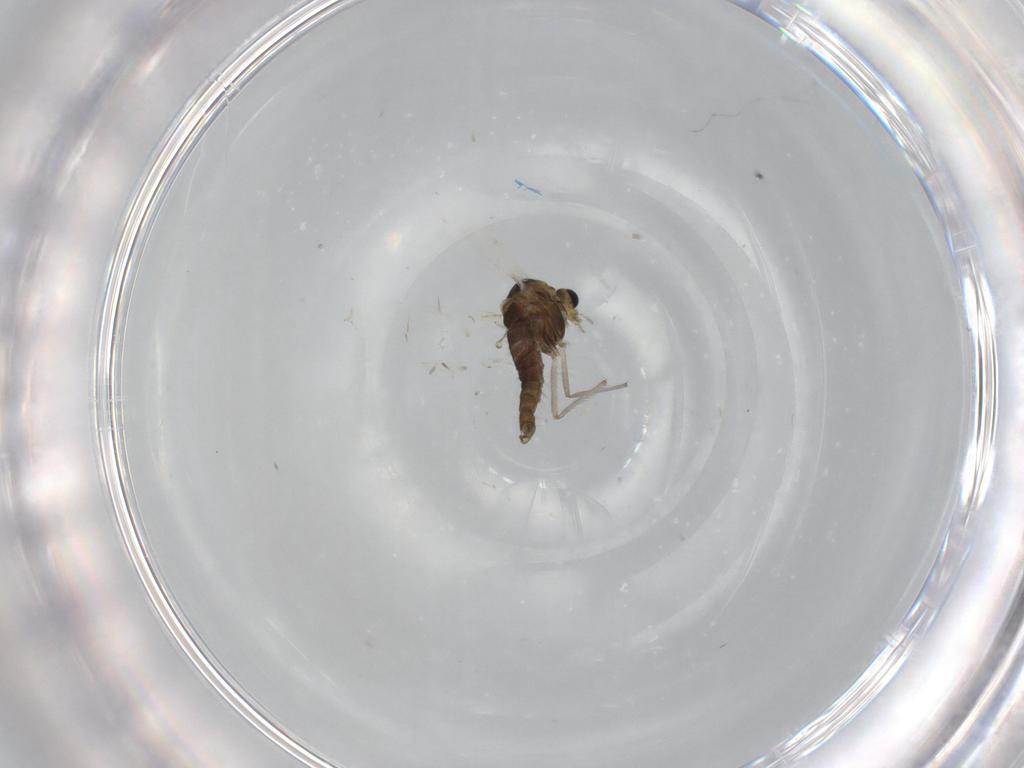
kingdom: Animalia
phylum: Arthropoda
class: Insecta
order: Diptera
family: Chironomidae
